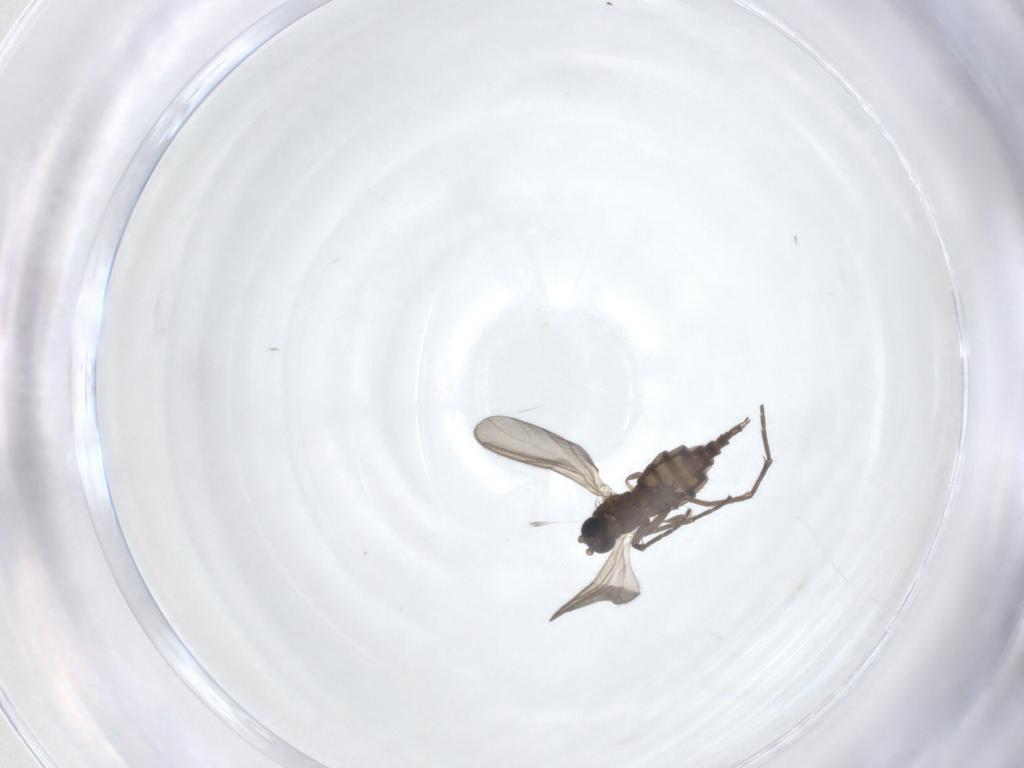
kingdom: Animalia
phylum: Arthropoda
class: Insecta
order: Diptera
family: Sciaridae
